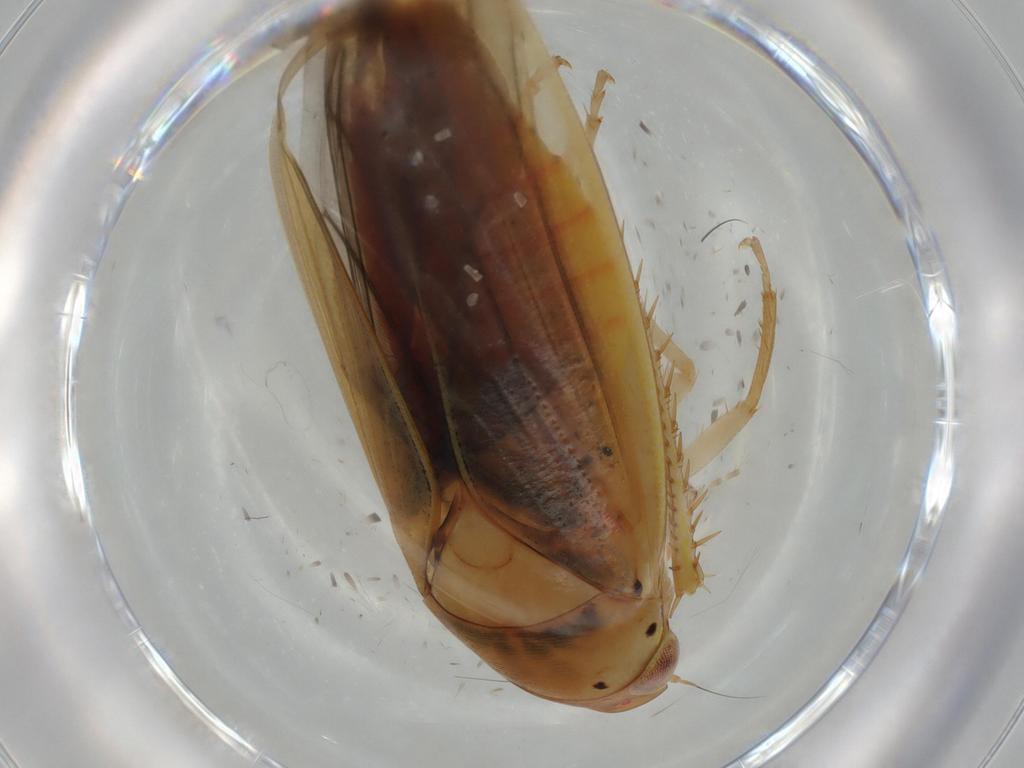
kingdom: Animalia
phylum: Arthropoda
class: Insecta
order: Hemiptera
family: Cicadellidae
